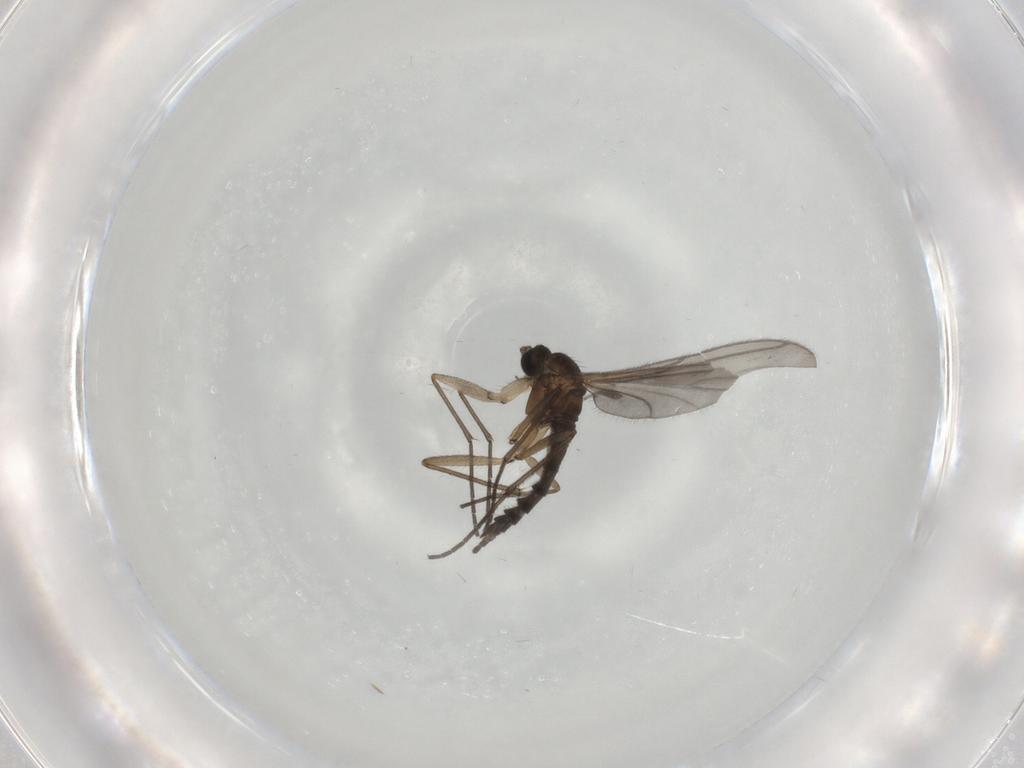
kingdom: Animalia
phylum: Arthropoda
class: Insecta
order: Diptera
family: Sciaridae
